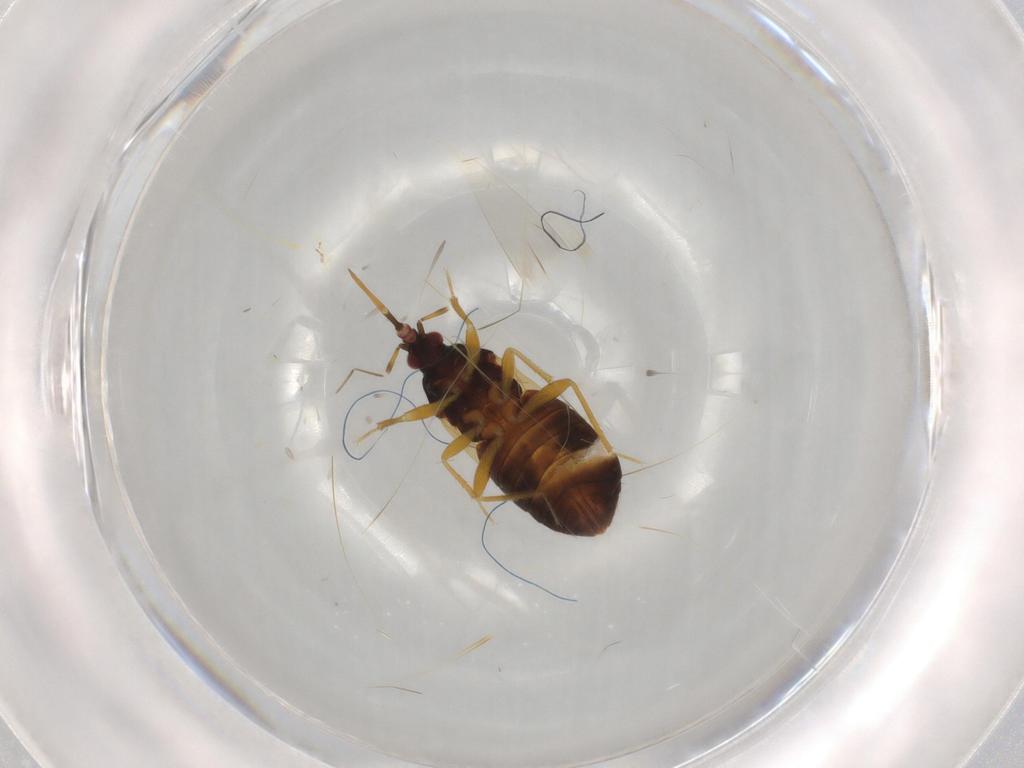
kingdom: Animalia
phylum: Arthropoda
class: Insecta
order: Hemiptera
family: Anthocoridae
